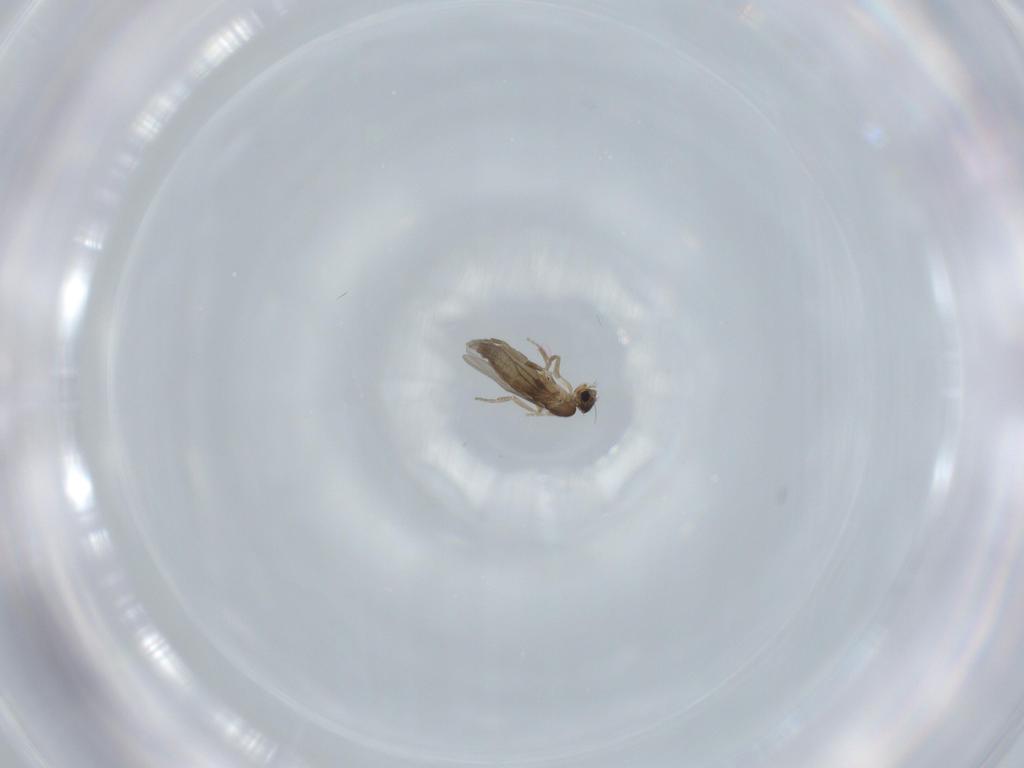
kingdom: Animalia
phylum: Arthropoda
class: Insecta
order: Diptera
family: Phoridae
